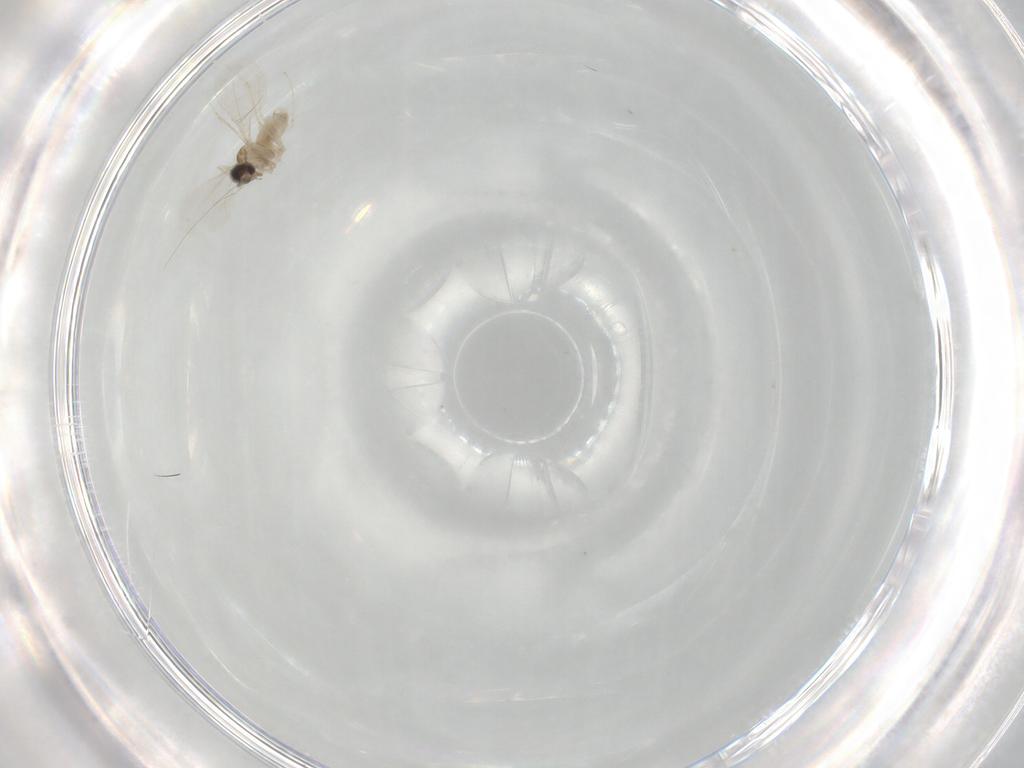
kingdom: Animalia
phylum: Arthropoda
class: Insecta
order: Diptera
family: Cecidomyiidae
